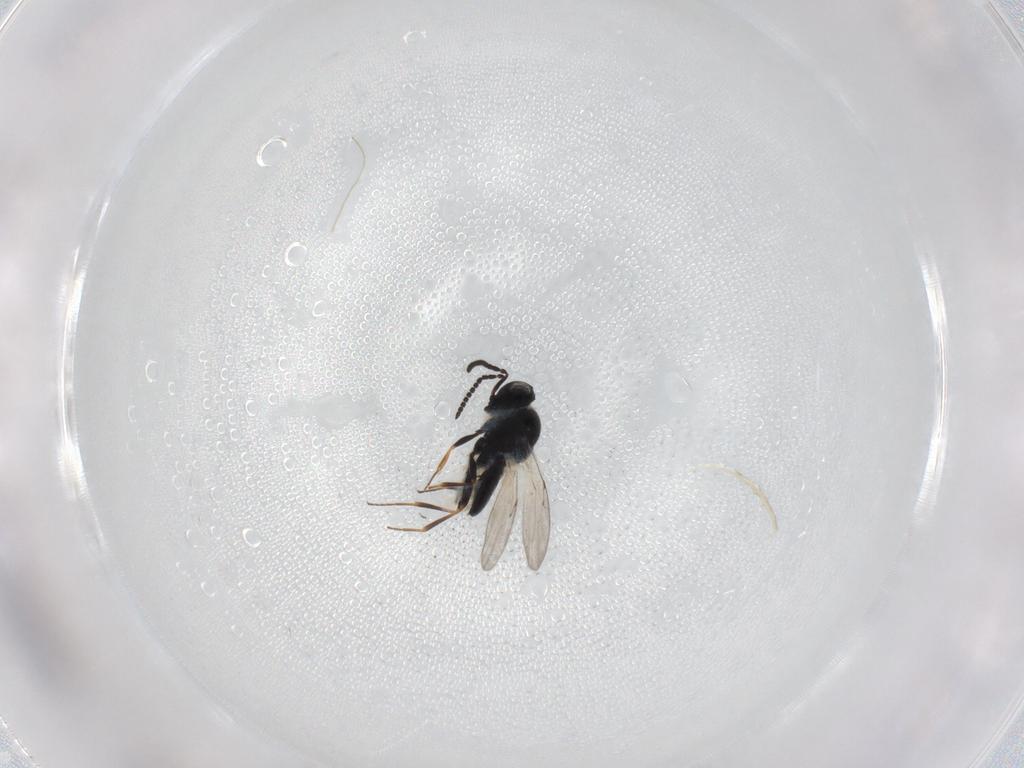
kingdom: Animalia
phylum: Arthropoda
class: Insecta
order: Hymenoptera
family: Scelionidae
